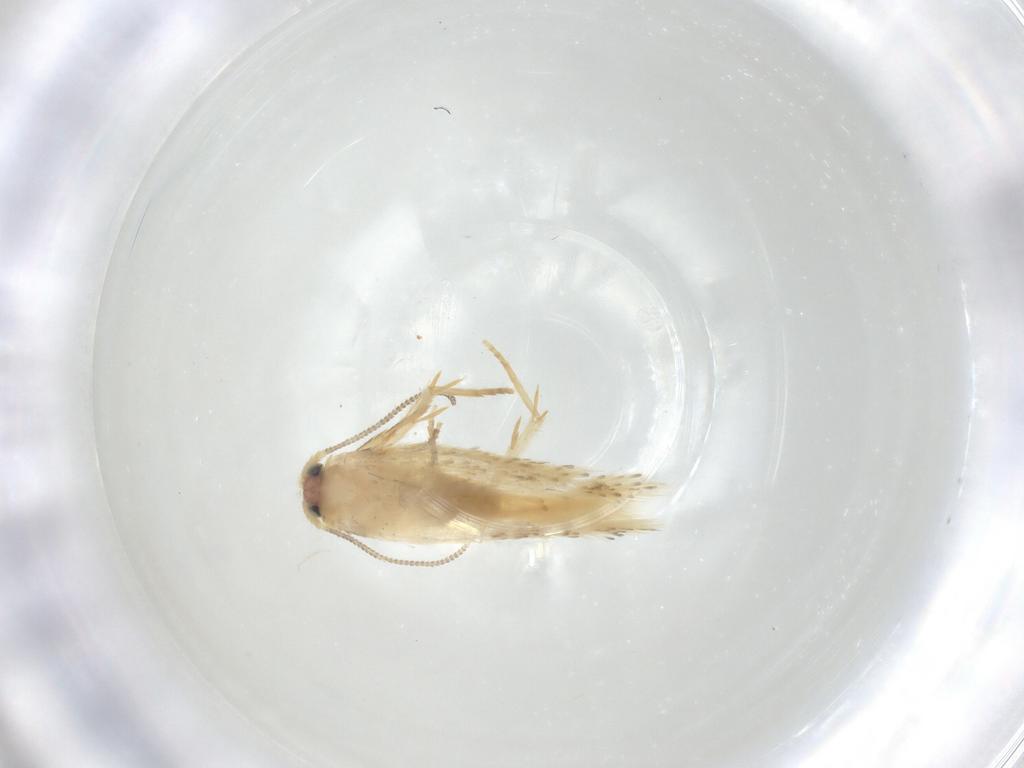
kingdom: Animalia
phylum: Arthropoda
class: Insecta
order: Lepidoptera
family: Nepticulidae
